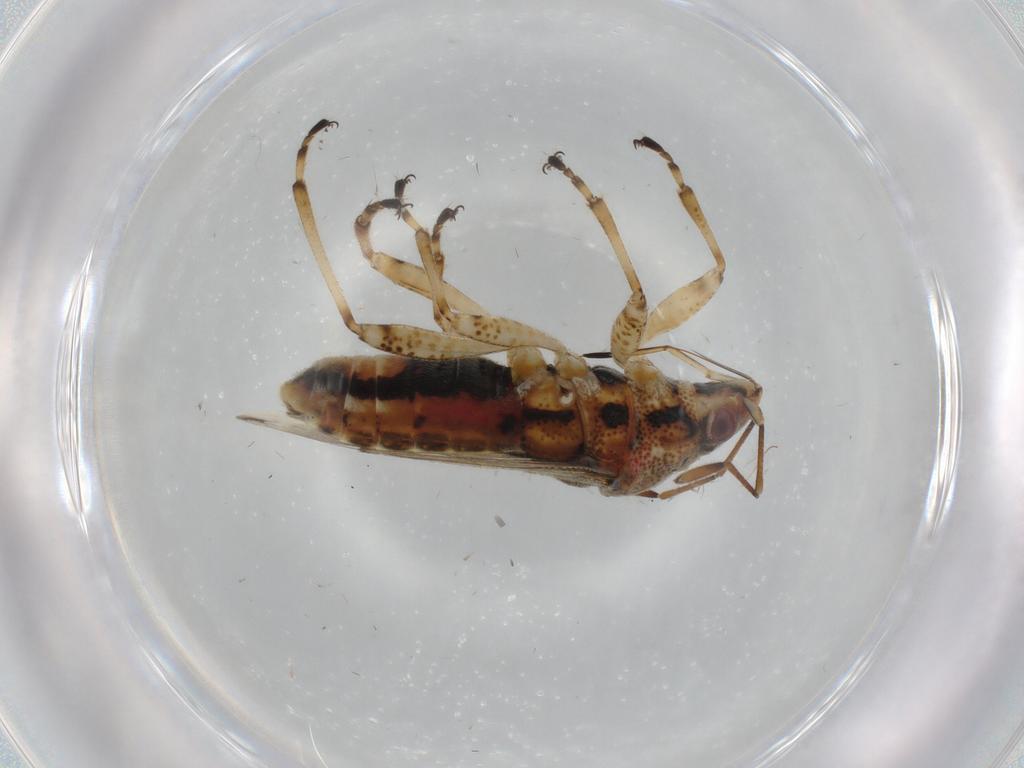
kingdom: Animalia
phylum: Arthropoda
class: Insecta
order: Hemiptera
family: Lygaeidae
